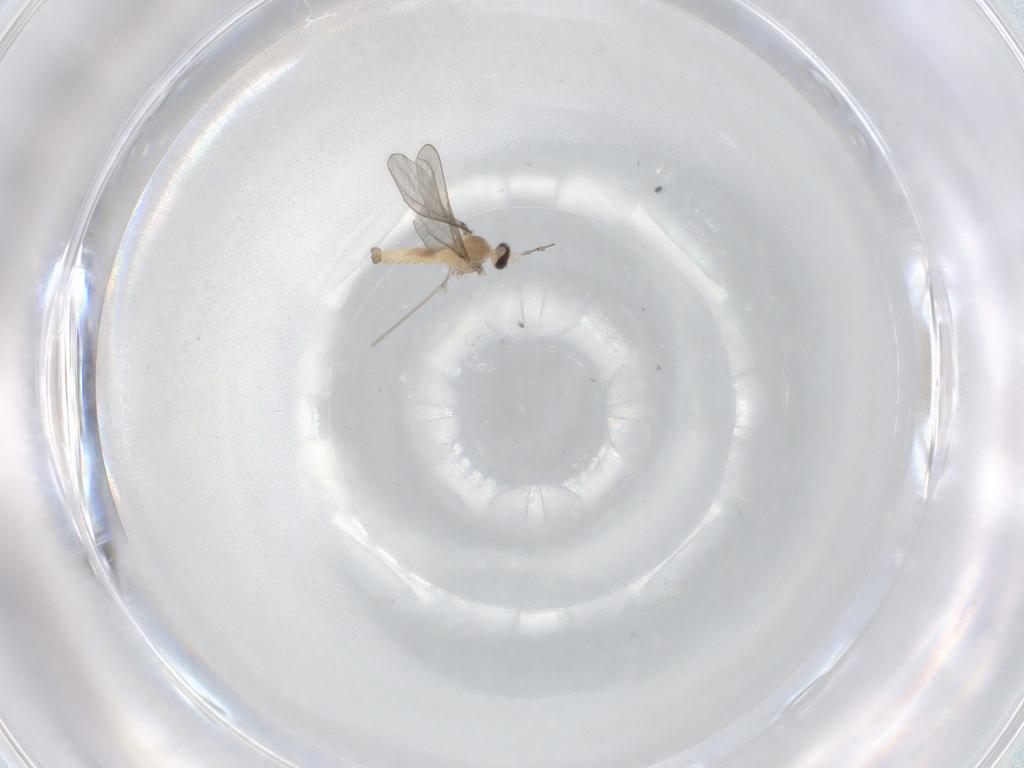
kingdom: Animalia
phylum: Arthropoda
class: Insecta
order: Diptera
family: Cecidomyiidae
